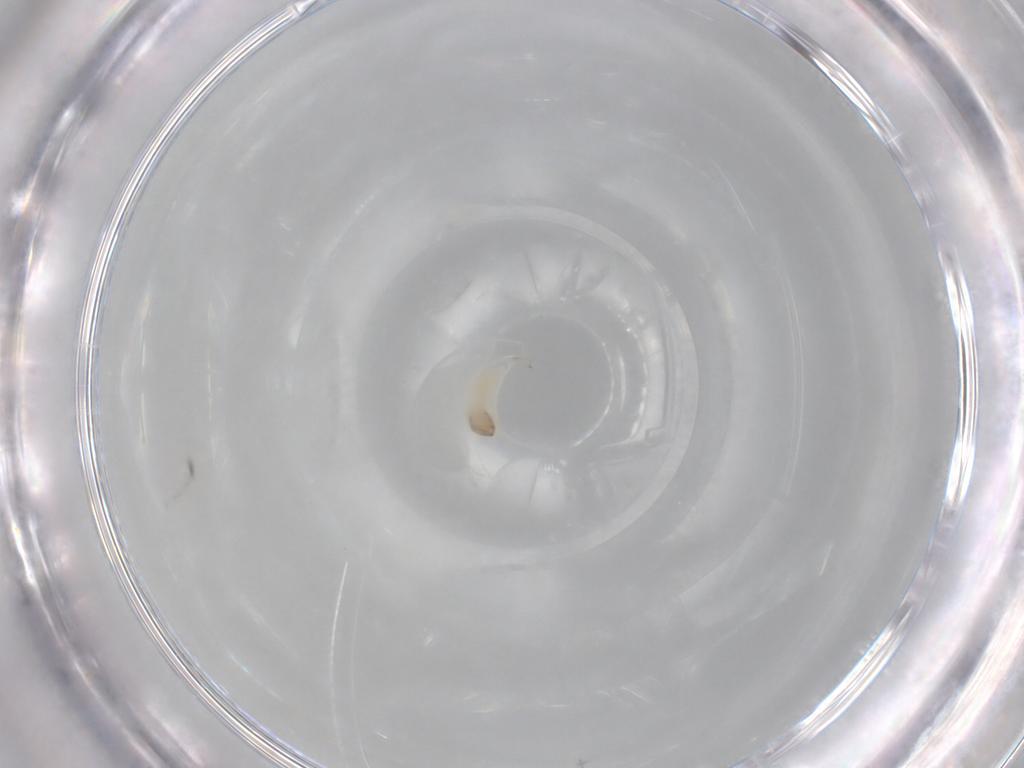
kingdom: Animalia
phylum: Arthropoda
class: Insecta
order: Lepidoptera
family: Tortricidae
